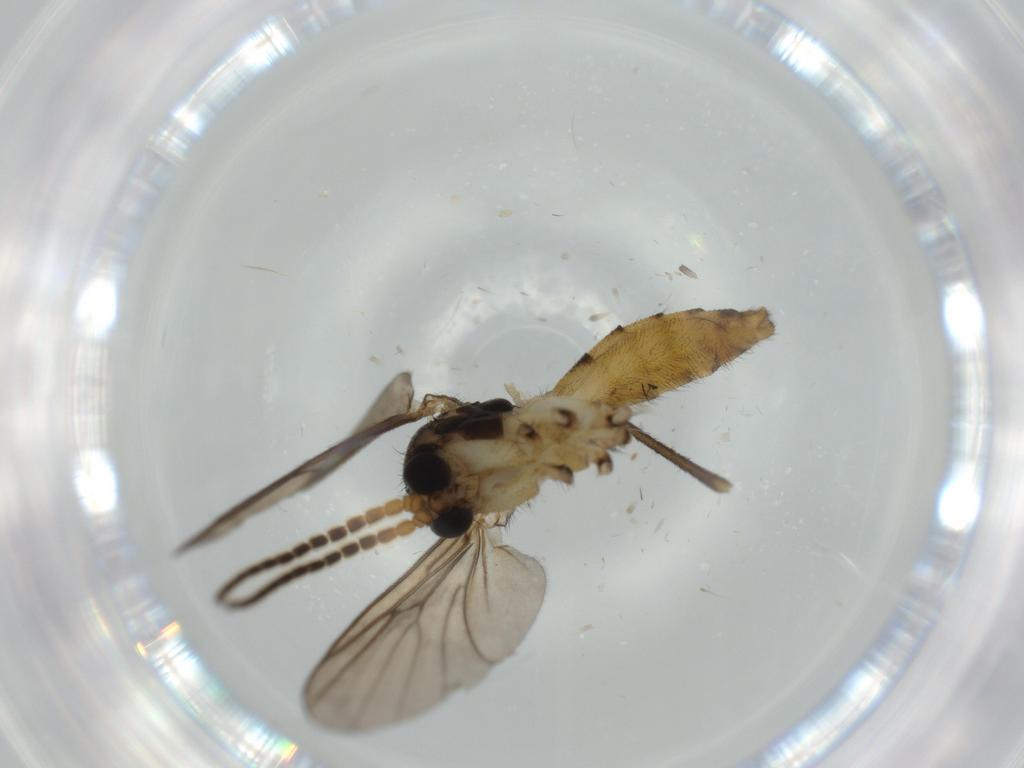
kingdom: Animalia
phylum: Arthropoda
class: Insecta
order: Diptera
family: Tabanidae
